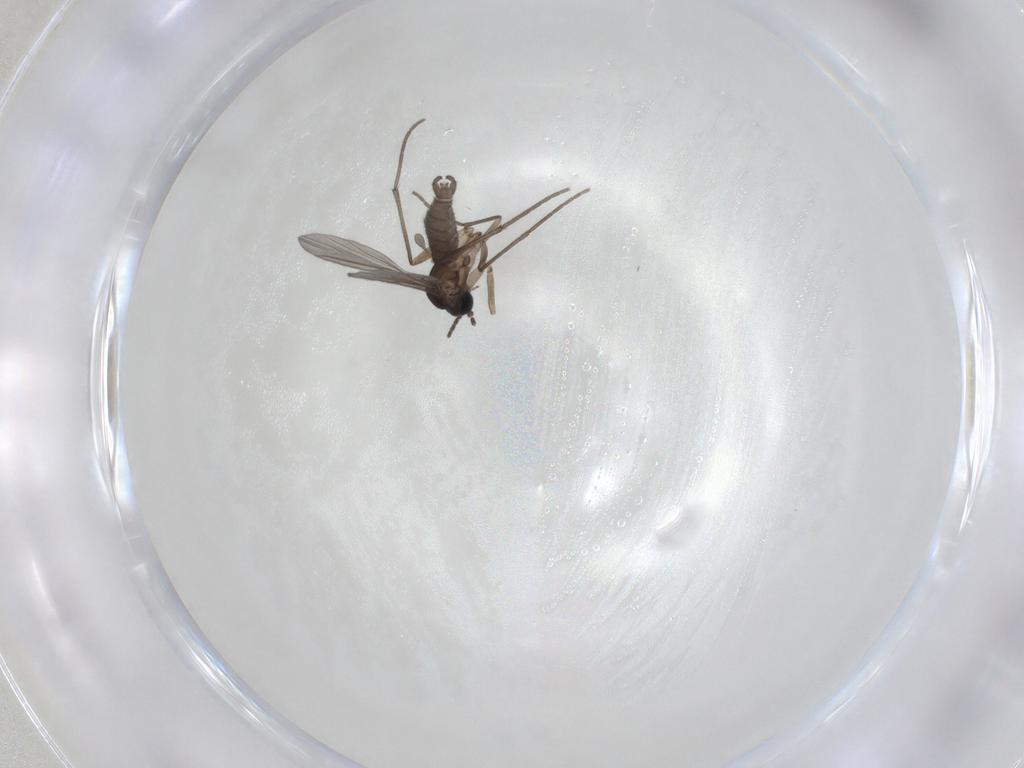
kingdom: Animalia
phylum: Arthropoda
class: Insecta
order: Diptera
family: Sciaridae
